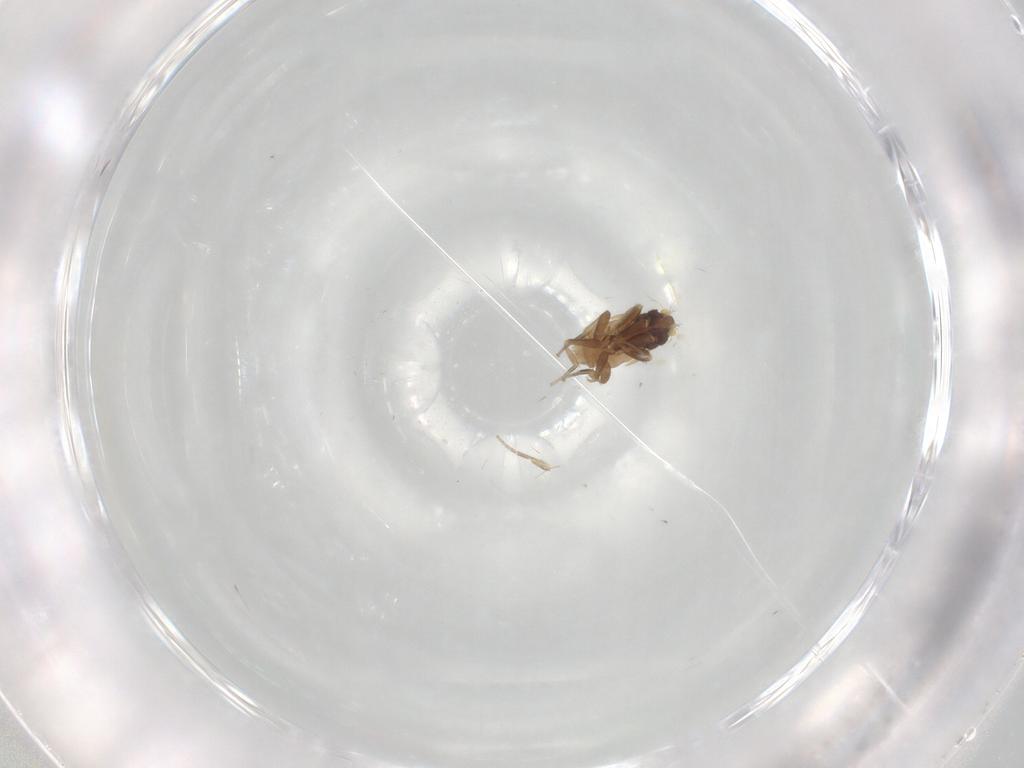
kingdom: Animalia
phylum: Arthropoda
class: Insecta
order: Diptera
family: Phoridae
